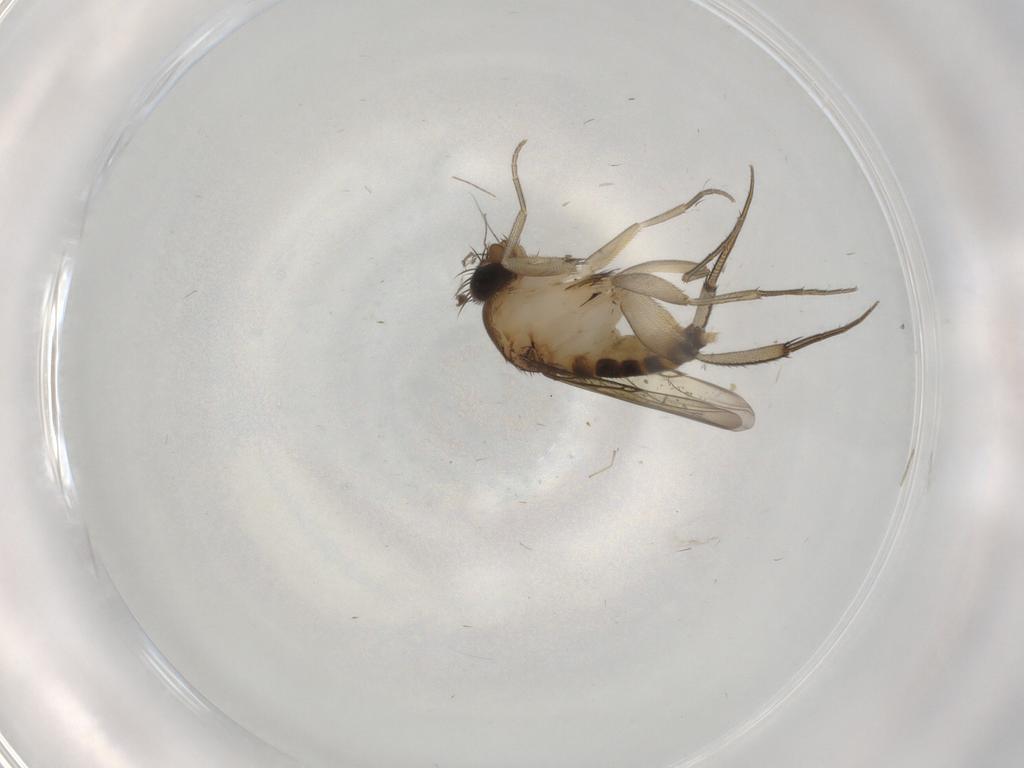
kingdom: Animalia
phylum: Arthropoda
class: Insecta
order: Diptera
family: Phoridae
